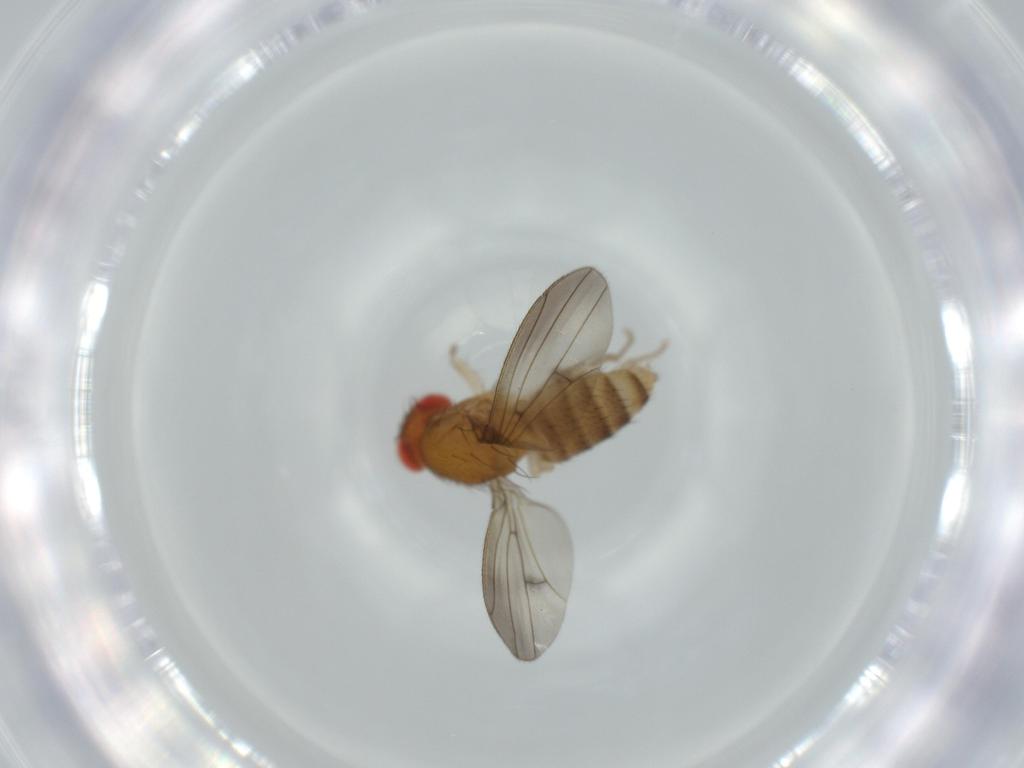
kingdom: Animalia
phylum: Arthropoda
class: Insecta
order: Diptera
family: Drosophilidae
